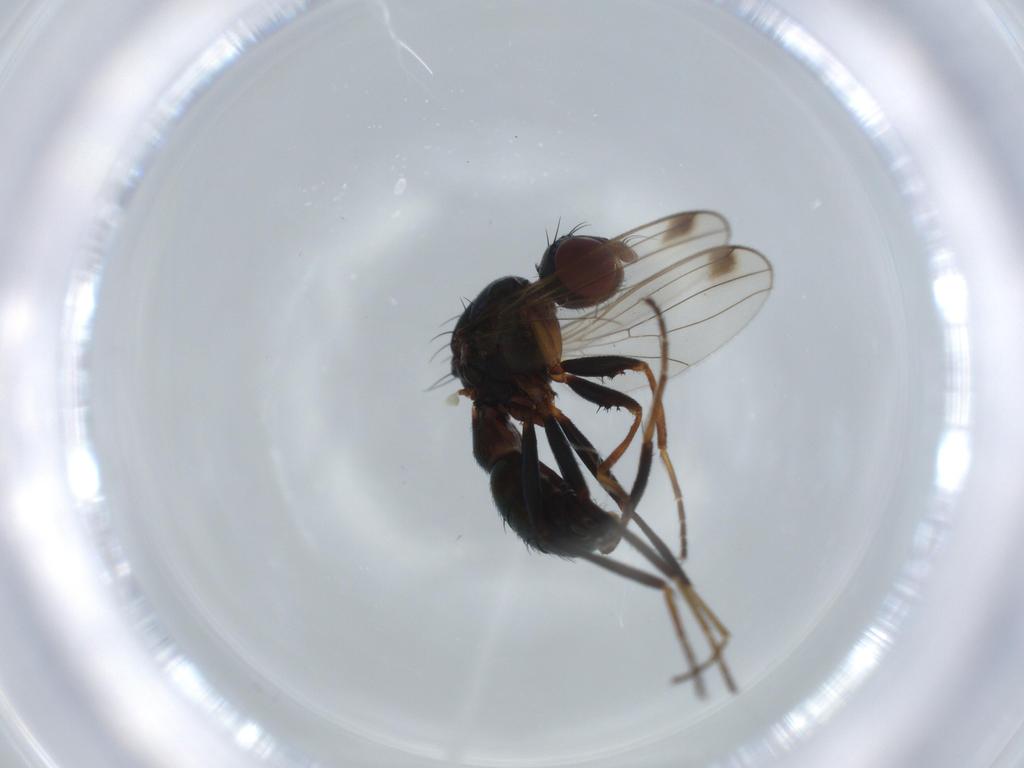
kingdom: Animalia
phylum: Arthropoda
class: Insecta
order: Diptera
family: Sepsidae
